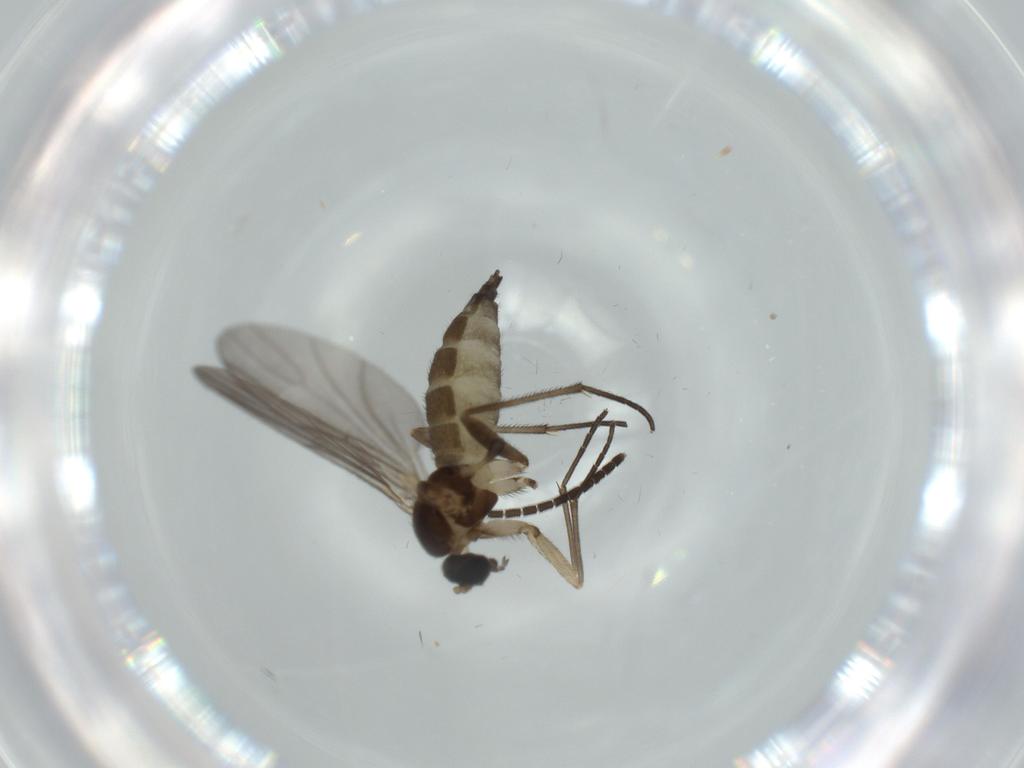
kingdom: Animalia
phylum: Arthropoda
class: Insecta
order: Diptera
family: Sciaridae
